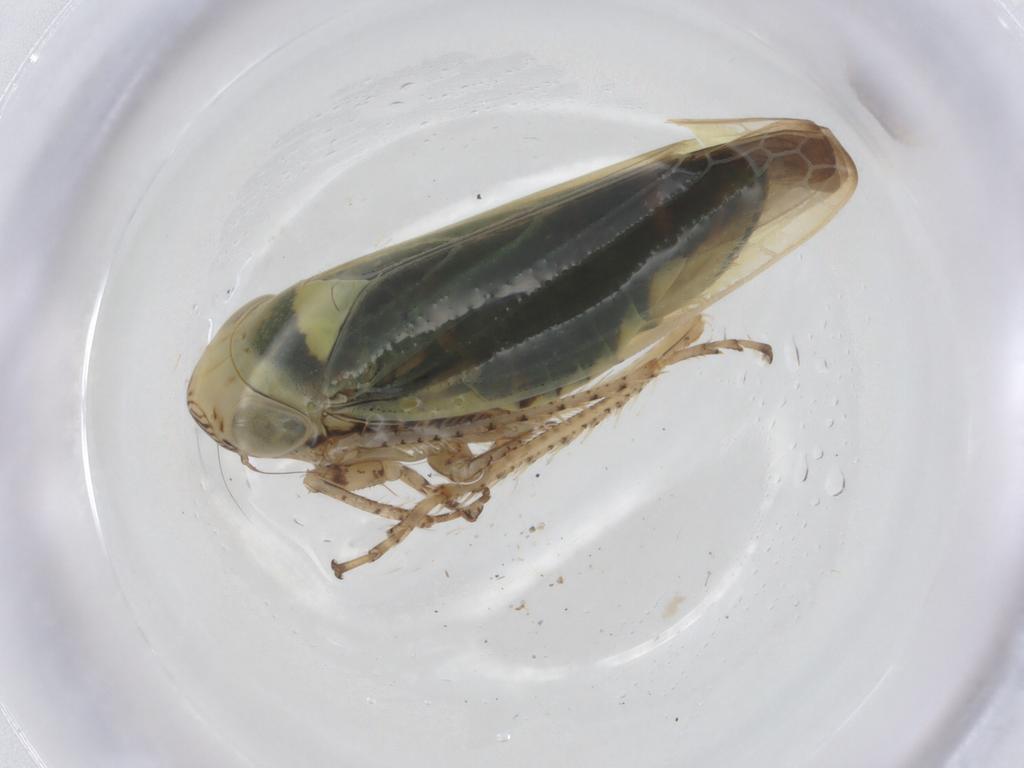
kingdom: Animalia
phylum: Arthropoda
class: Insecta
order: Hemiptera
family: Cicadellidae
